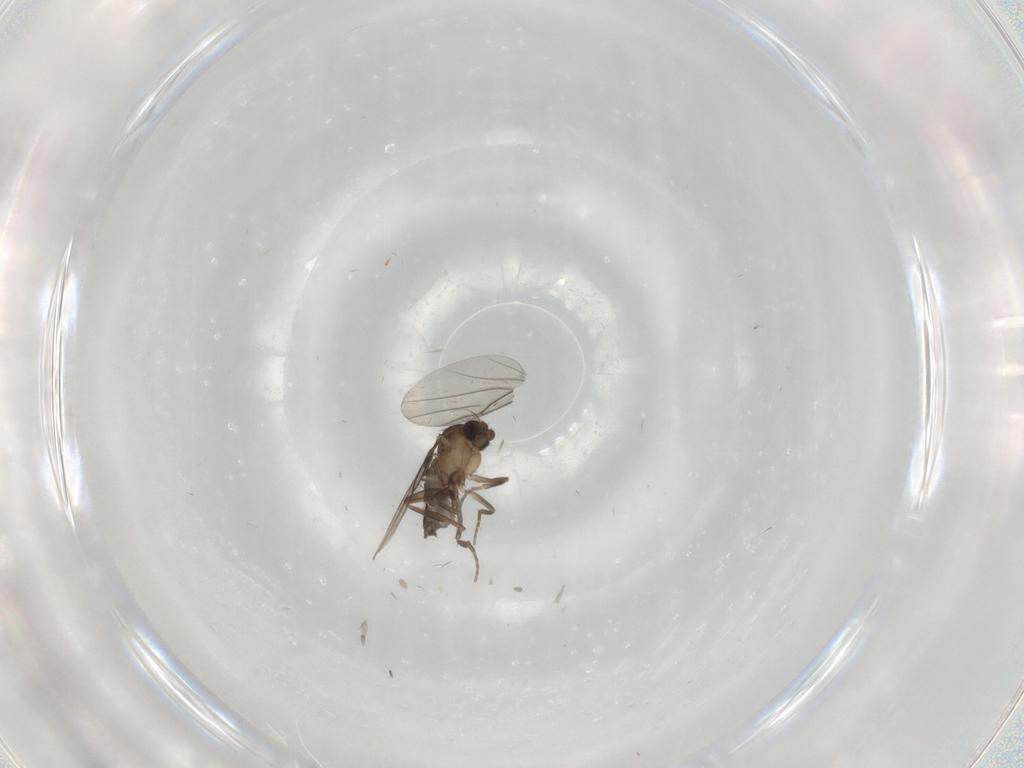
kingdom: Animalia
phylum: Arthropoda
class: Insecta
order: Diptera
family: Phoridae
